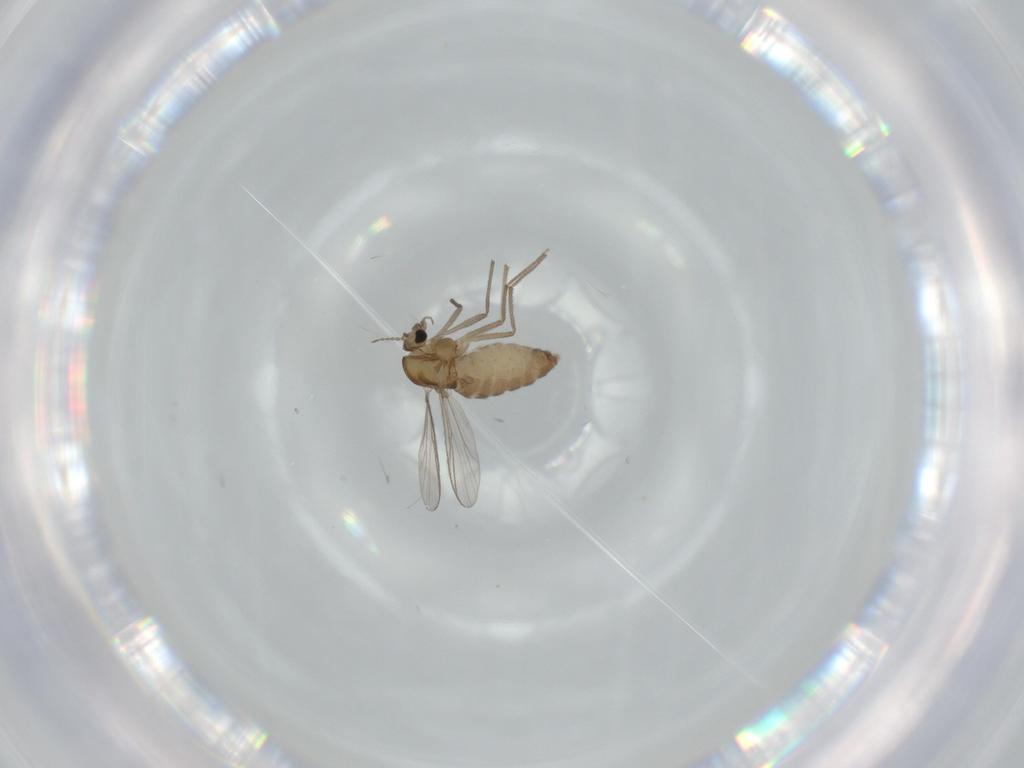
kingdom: Animalia
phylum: Arthropoda
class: Insecta
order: Diptera
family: Chironomidae
